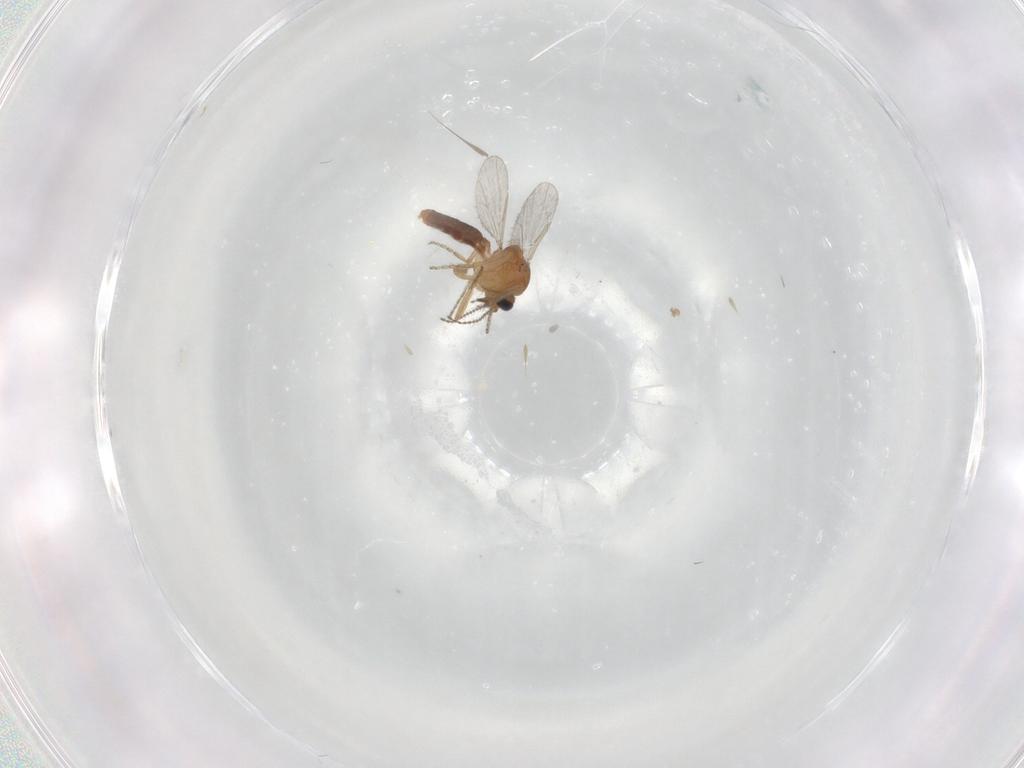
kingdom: Animalia
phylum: Arthropoda
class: Insecta
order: Diptera
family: Ceratopogonidae
